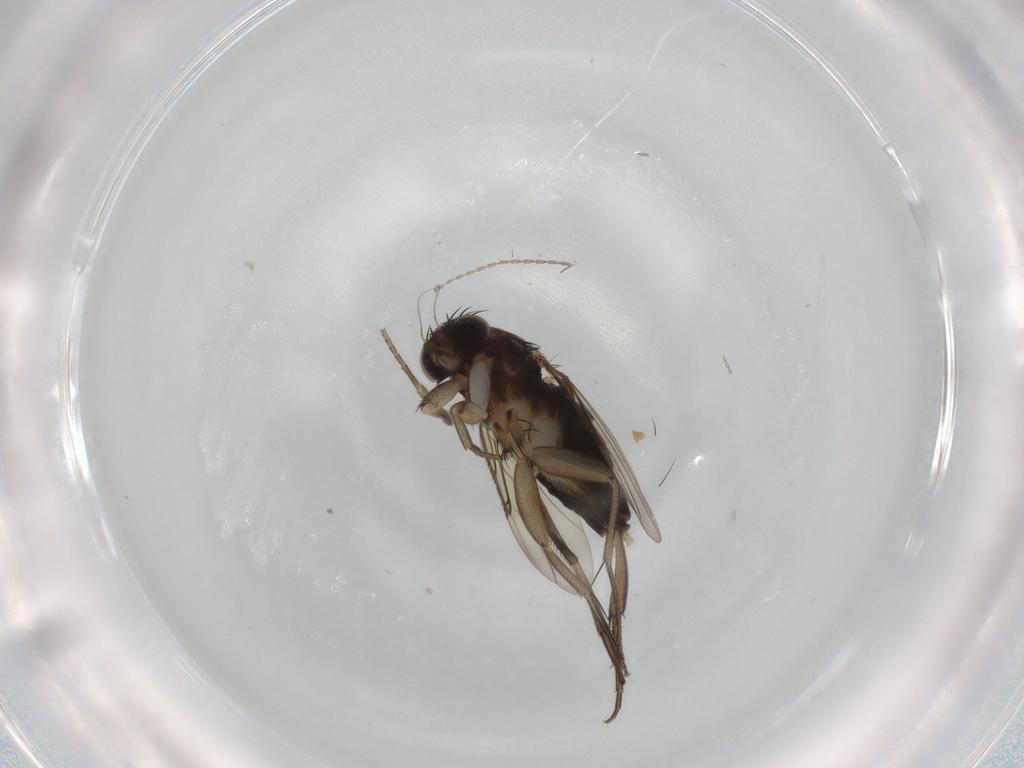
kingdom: Animalia
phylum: Arthropoda
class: Insecta
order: Diptera
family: Phoridae
